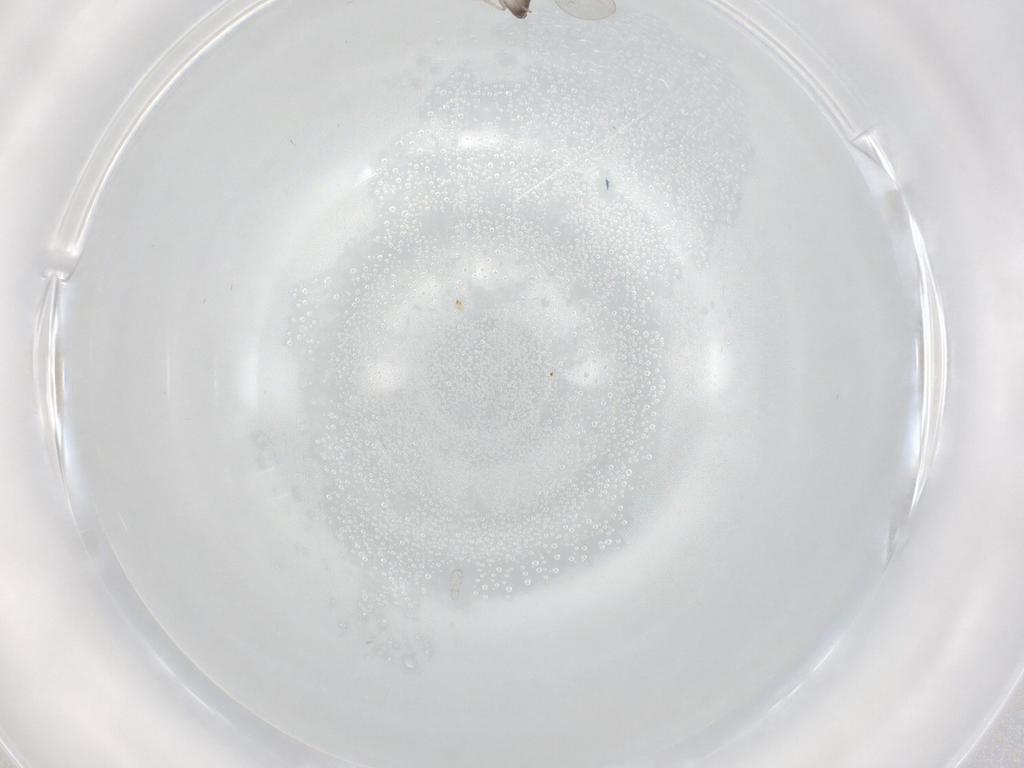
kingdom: Animalia
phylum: Arthropoda
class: Insecta
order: Diptera
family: Cecidomyiidae
